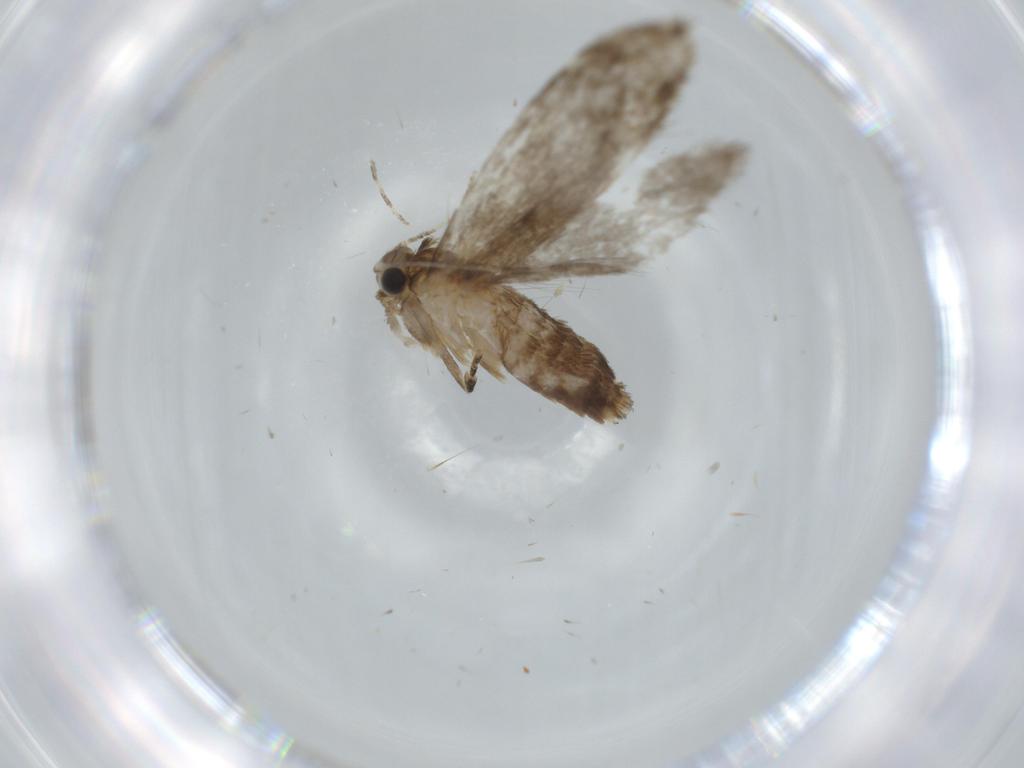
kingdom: Animalia
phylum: Arthropoda
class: Insecta
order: Lepidoptera
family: Tineidae
